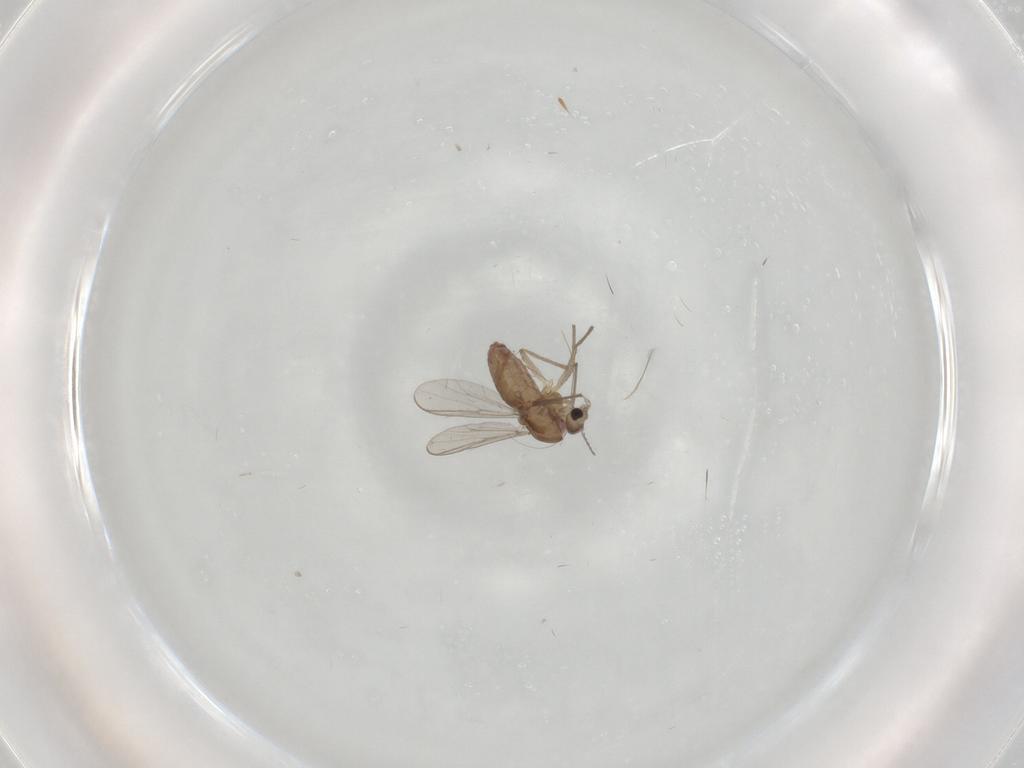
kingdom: Animalia
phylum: Arthropoda
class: Insecta
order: Diptera
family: Chironomidae
